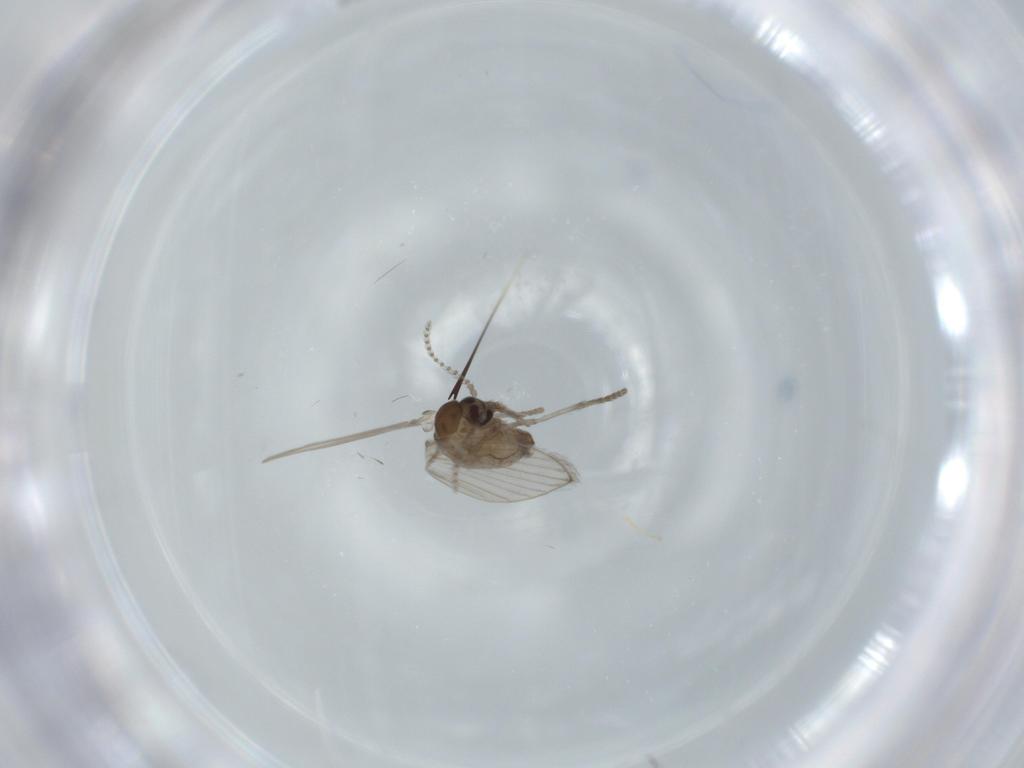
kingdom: Animalia
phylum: Arthropoda
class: Insecta
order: Diptera
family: Psychodidae
